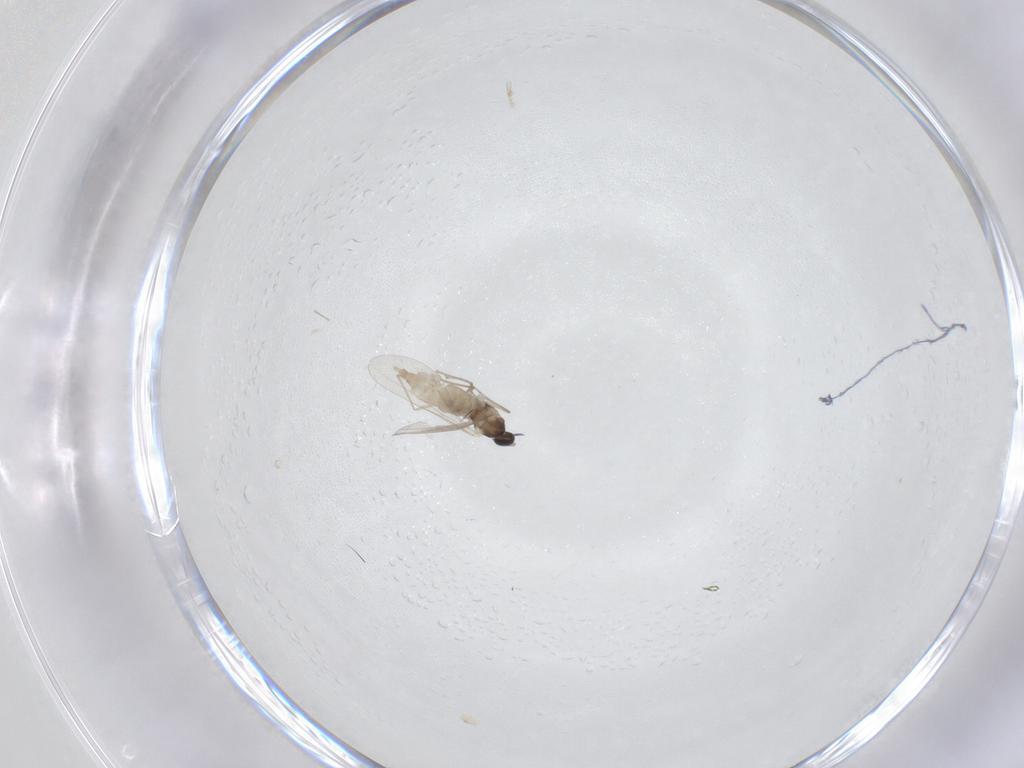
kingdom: Animalia
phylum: Arthropoda
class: Insecta
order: Diptera
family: Cecidomyiidae
